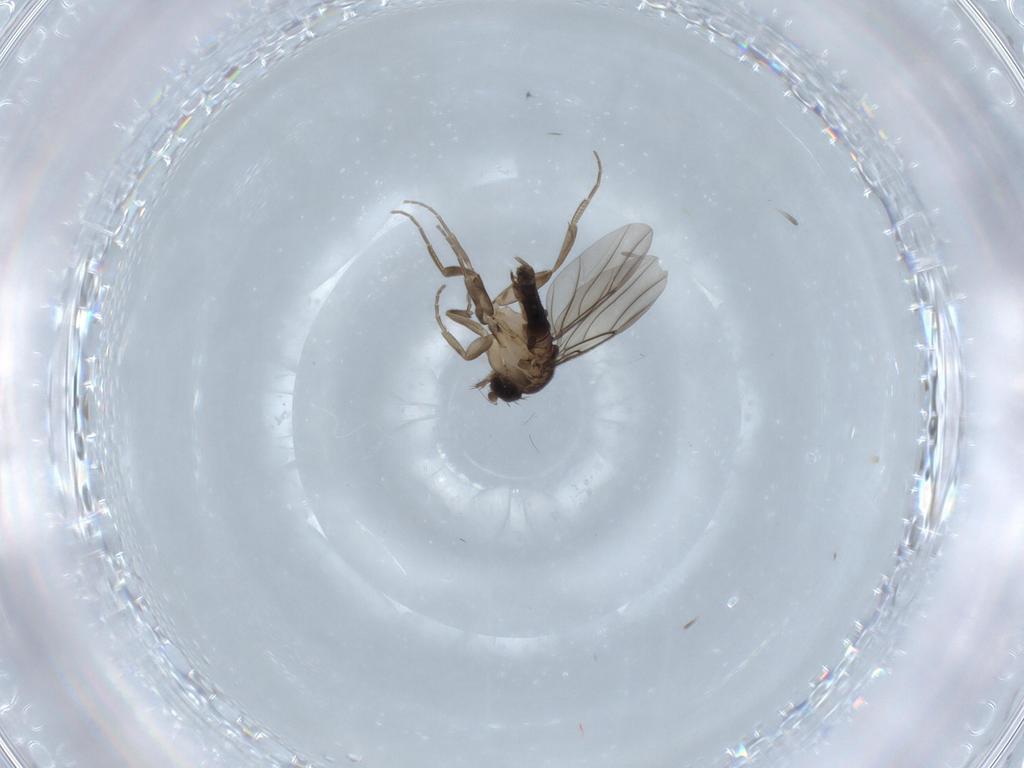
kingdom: Animalia
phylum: Arthropoda
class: Insecta
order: Diptera
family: Phoridae
